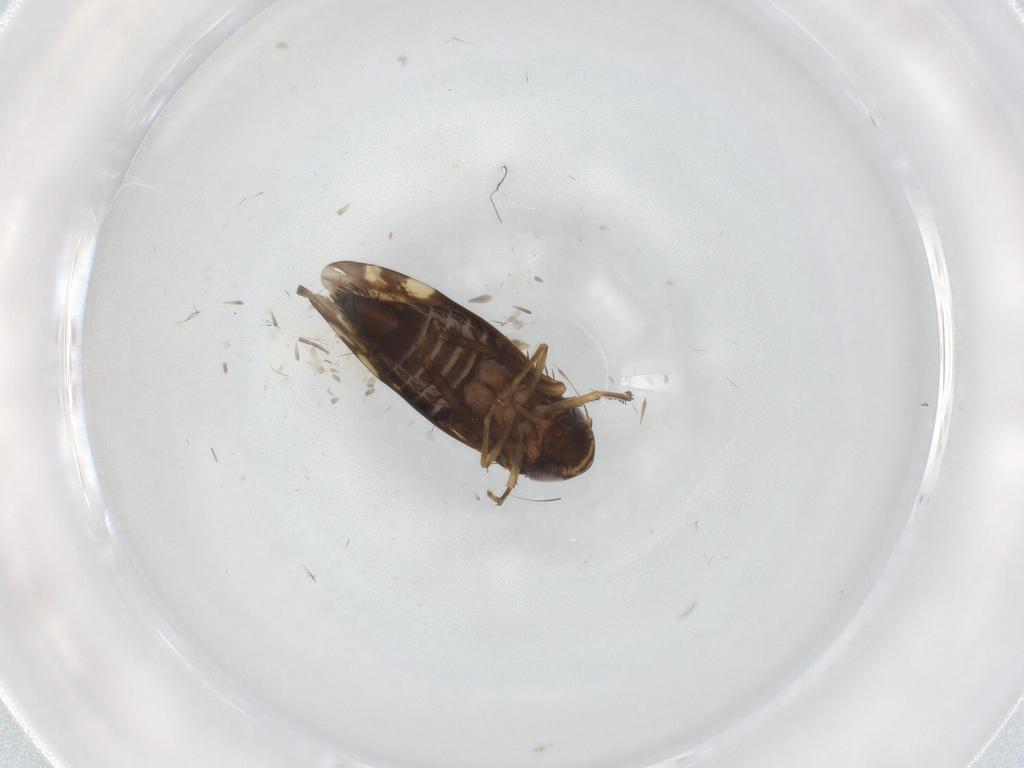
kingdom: Animalia
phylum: Arthropoda
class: Insecta
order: Hemiptera
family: Cicadellidae
